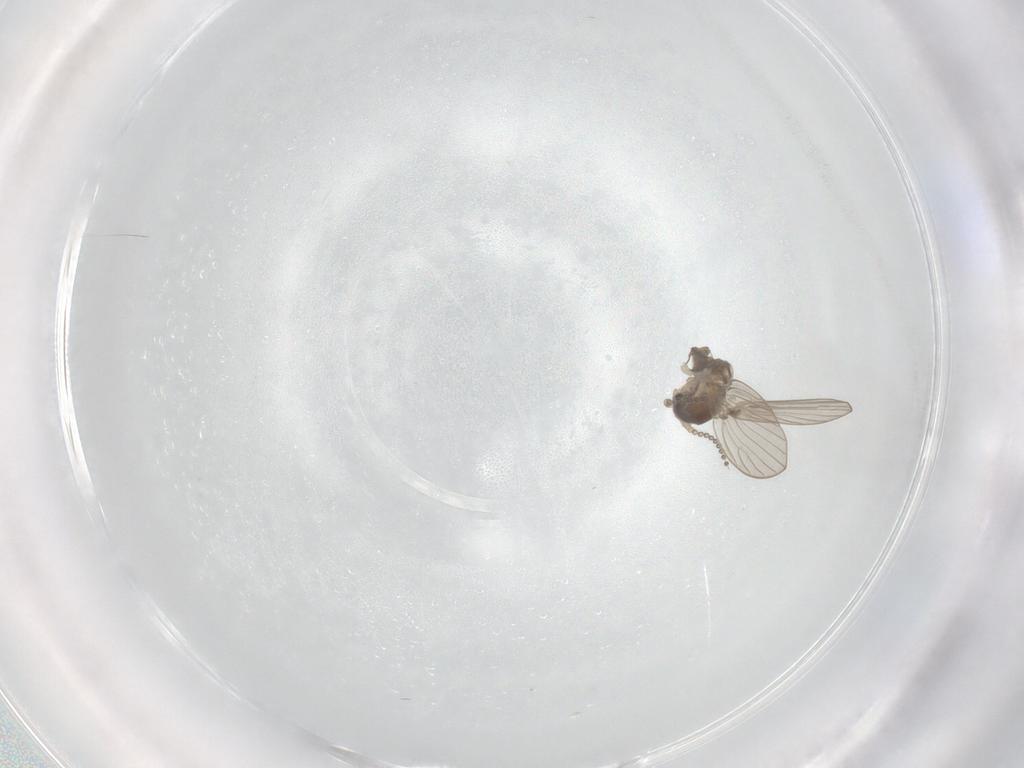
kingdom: Animalia
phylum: Arthropoda
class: Insecta
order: Diptera
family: Psychodidae
